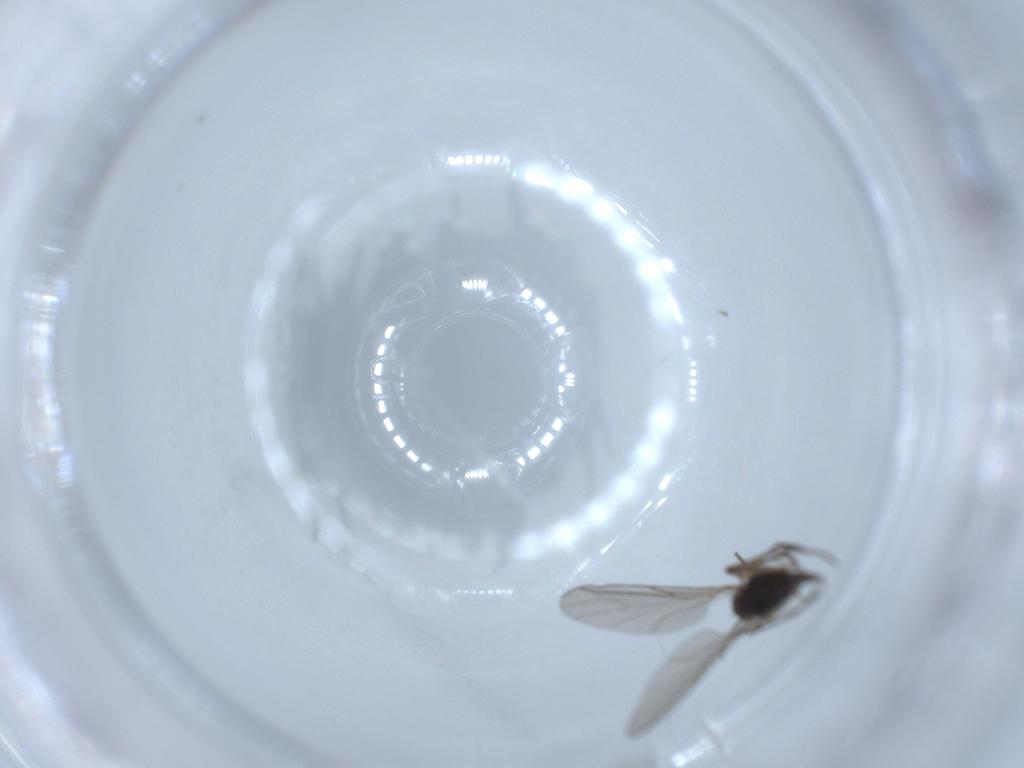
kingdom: Animalia
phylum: Arthropoda
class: Insecta
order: Diptera
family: Sciaridae
